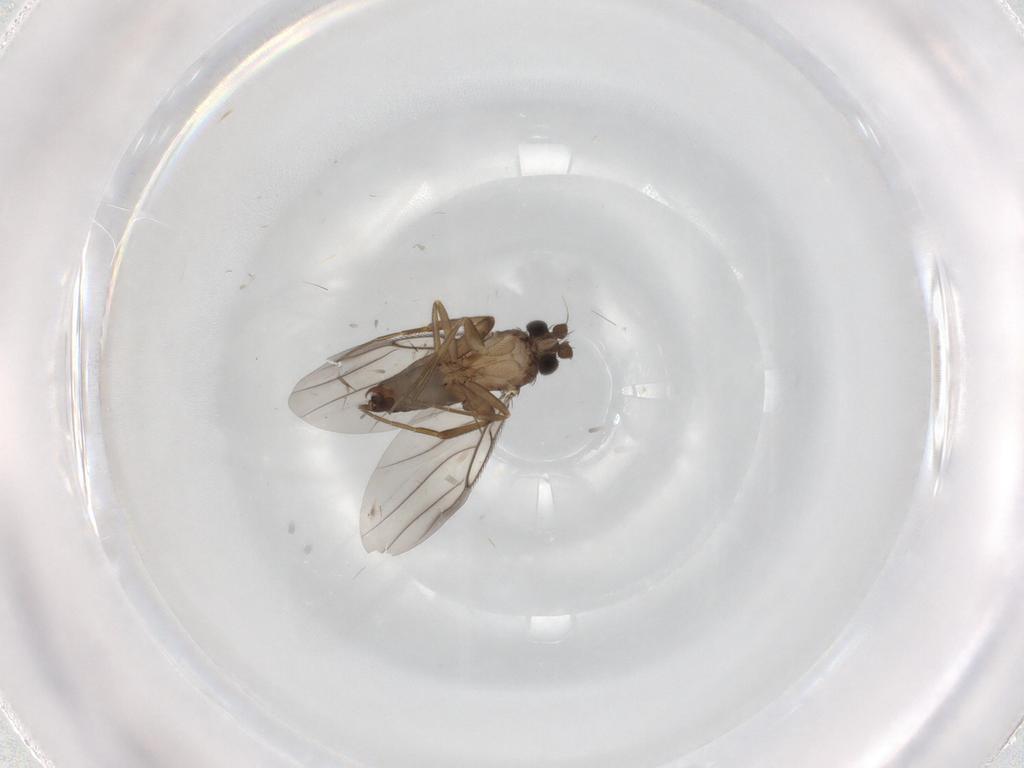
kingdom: Animalia
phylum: Arthropoda
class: Insecta
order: Diptera
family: Phoridae
